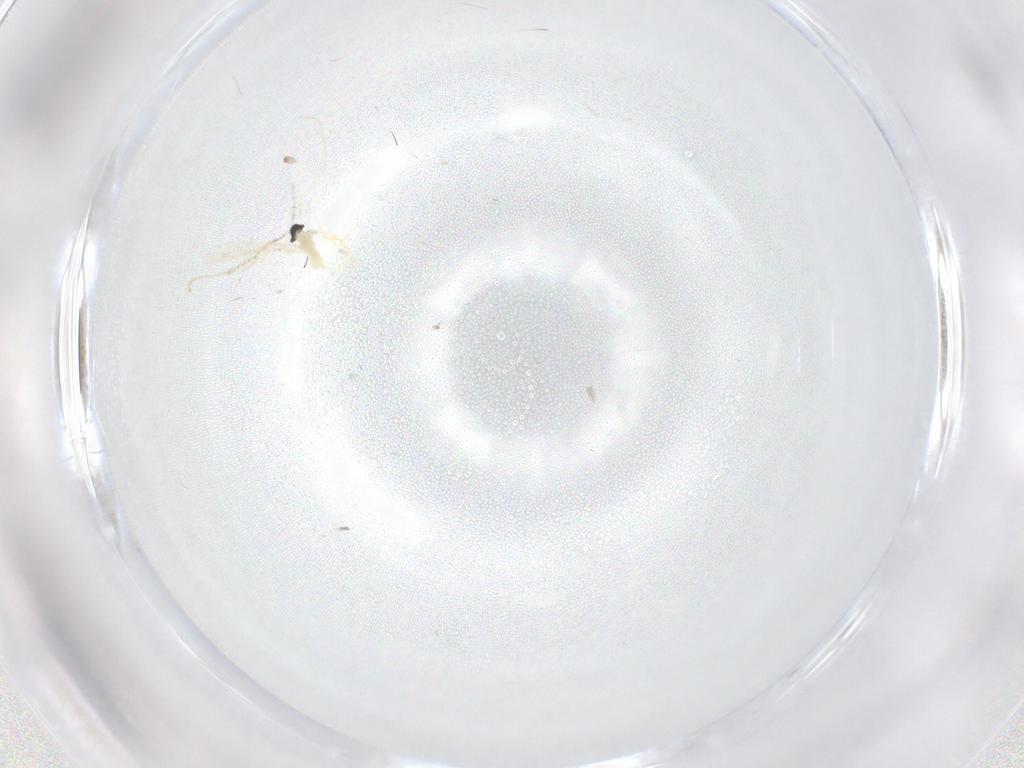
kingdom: Animalia
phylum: Arthropoda
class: Insecta
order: Diptera
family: Cecidomyiidae
